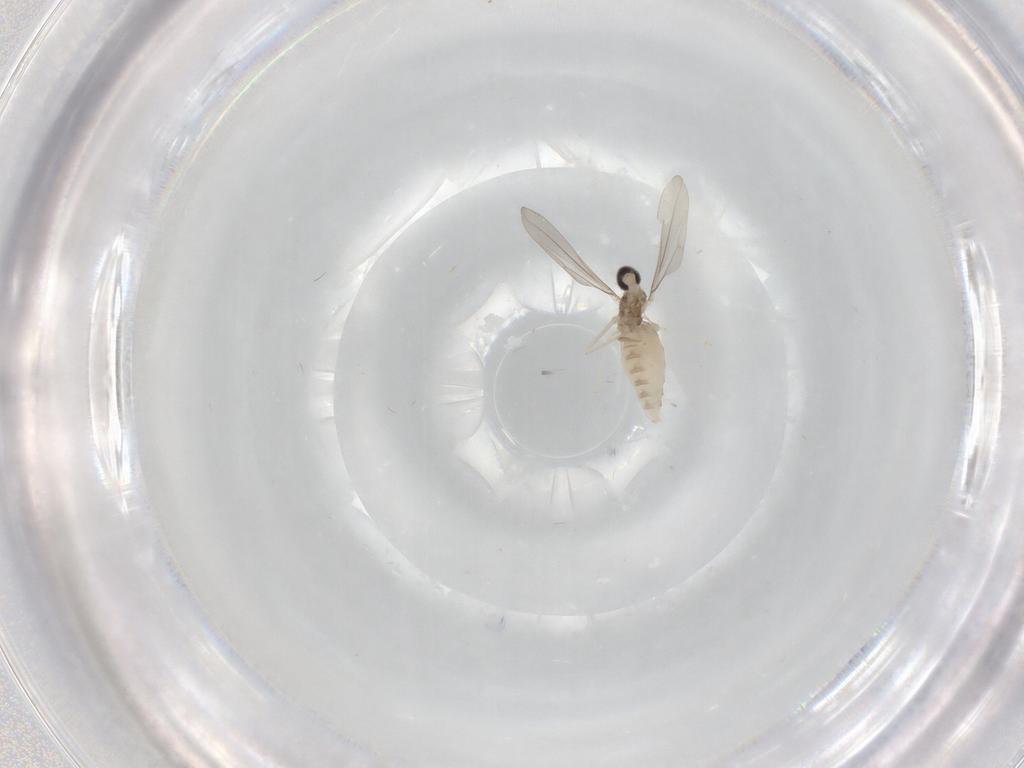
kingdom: Animalia
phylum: Arthropoda
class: Insecta
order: Diptera
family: Cecidomyiidae
